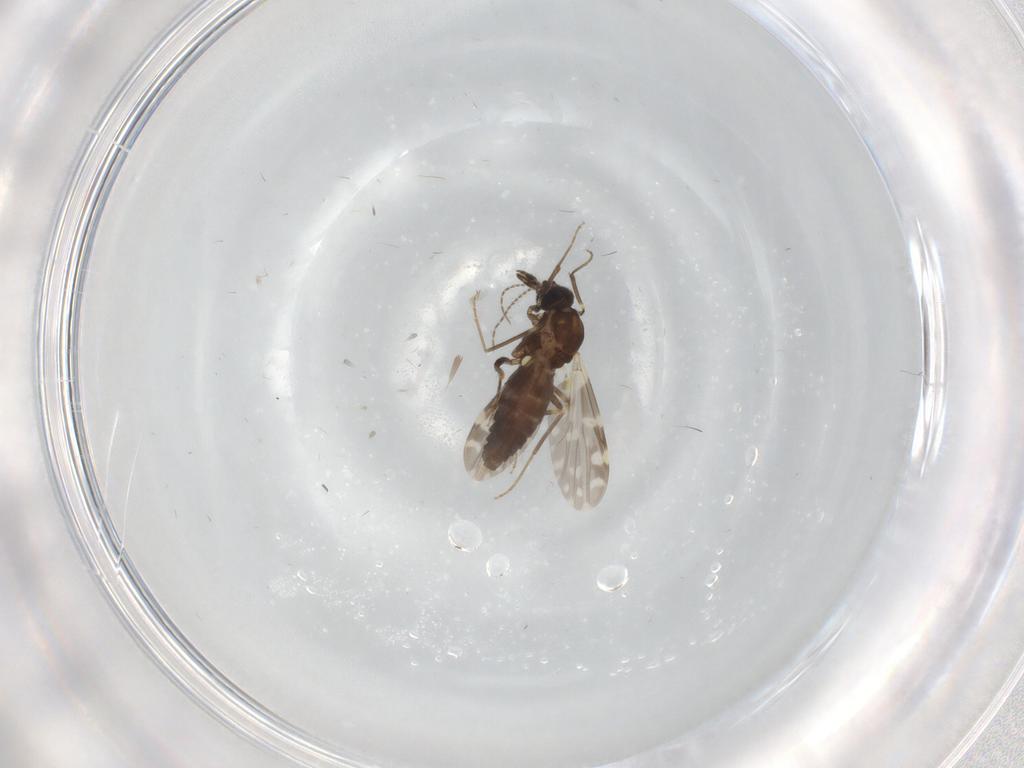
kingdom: Animalia
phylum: Arthropoda
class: Insecta
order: Diptera
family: Ceratopogonidae
